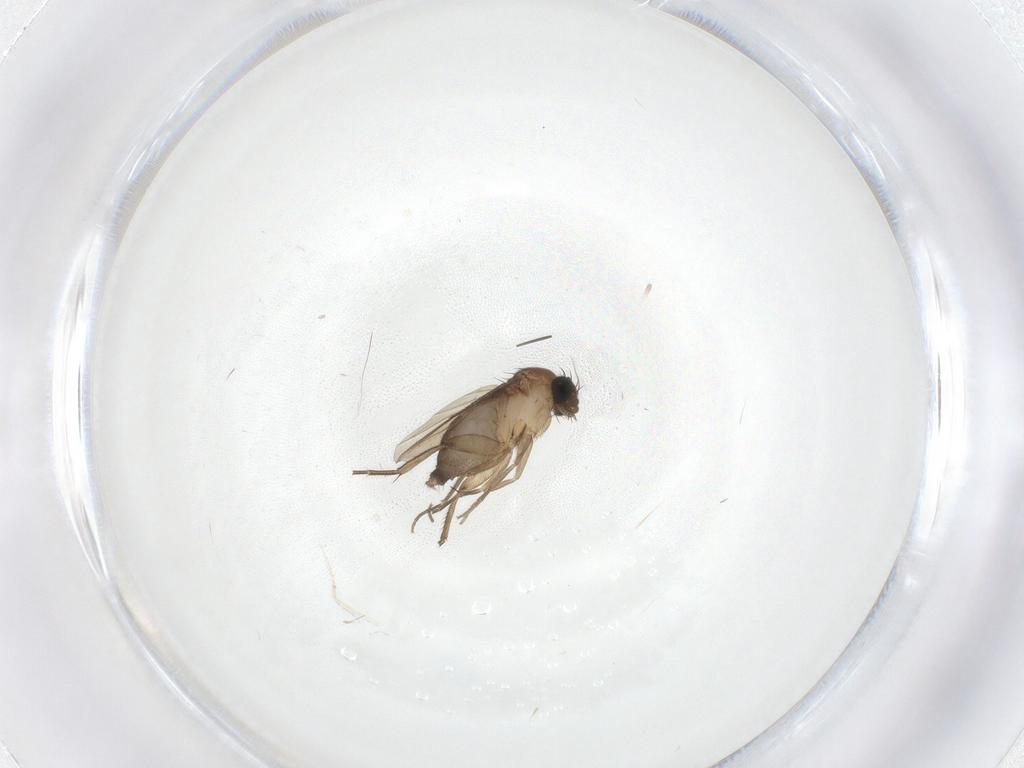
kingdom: Animalia
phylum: Arthropoda
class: Insecta
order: Diptera
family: Phoridae
